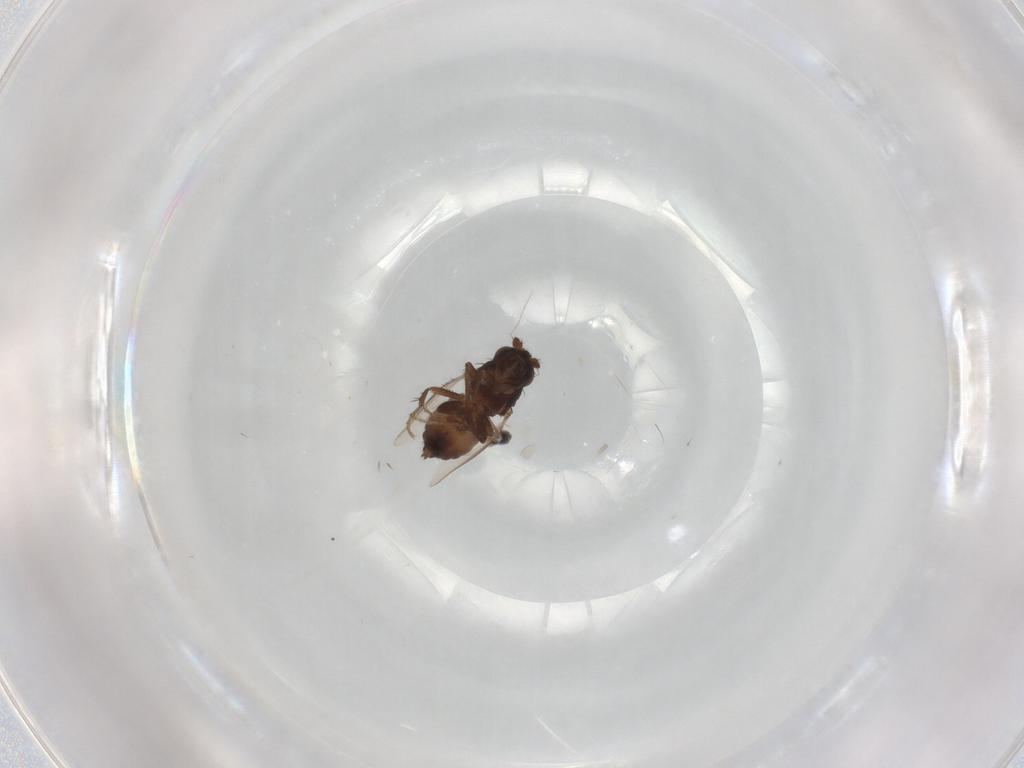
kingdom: Animalia
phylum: Arthropoda
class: Insecta
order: Diptera
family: Sphaeroceridae
